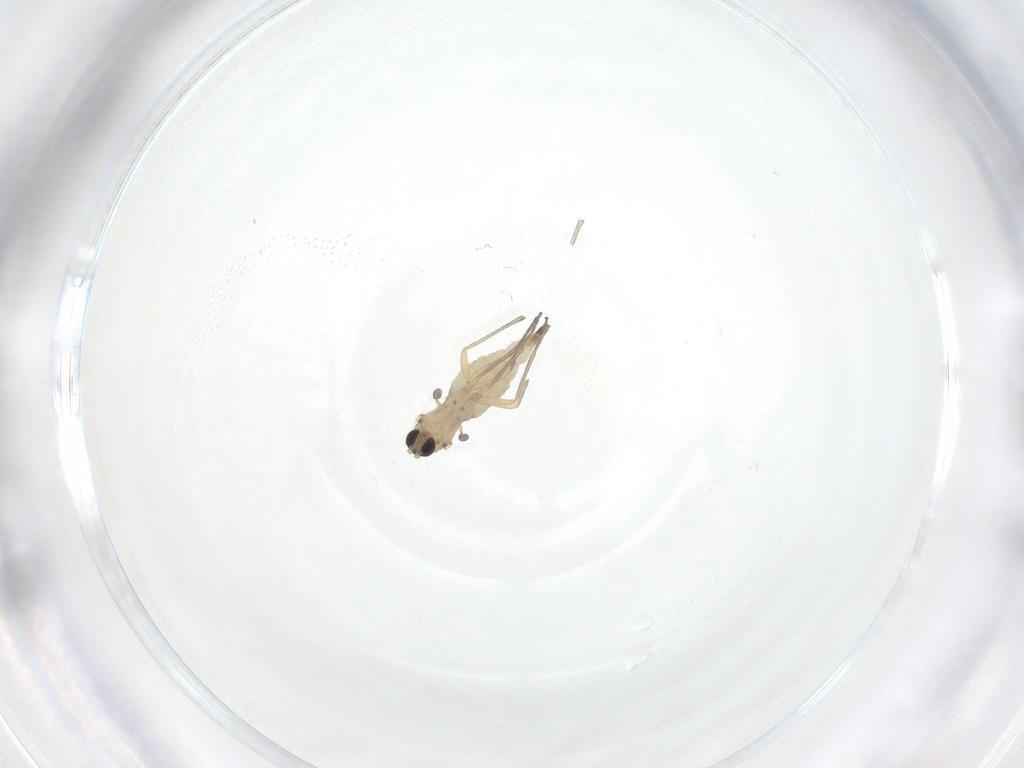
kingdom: Animalia
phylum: Arthropoda
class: Insecta
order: Diptera
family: Sciaridae
